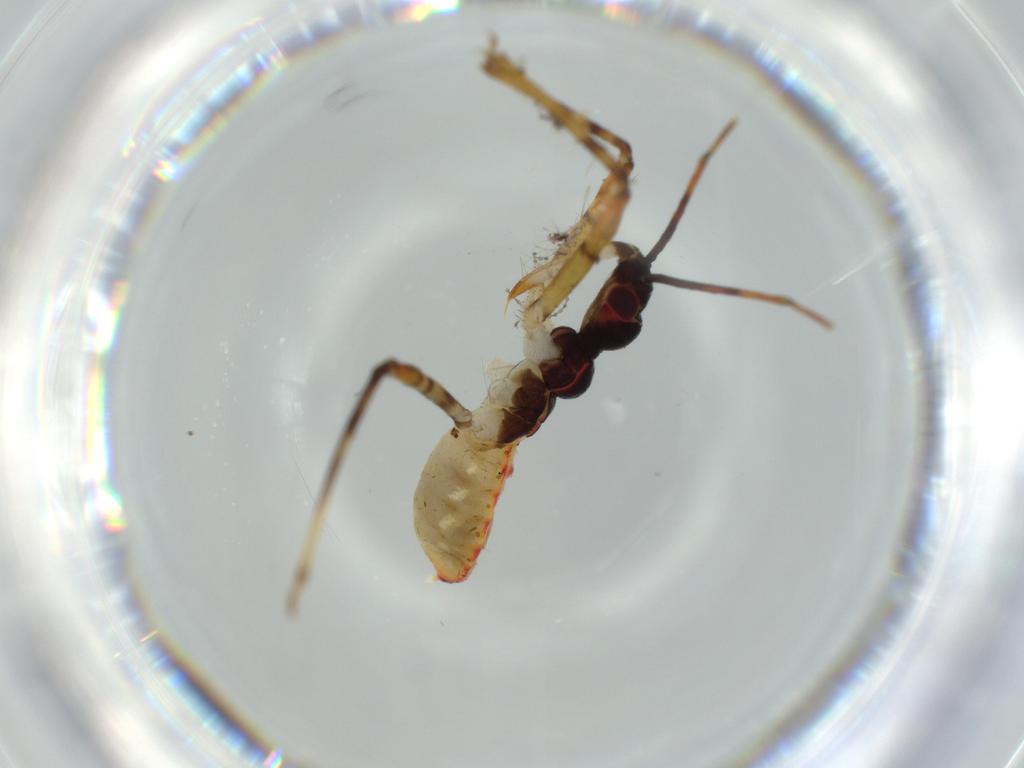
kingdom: Animalia
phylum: Arthropoda
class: Insecta
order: Hemiptera
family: Reduviidae
